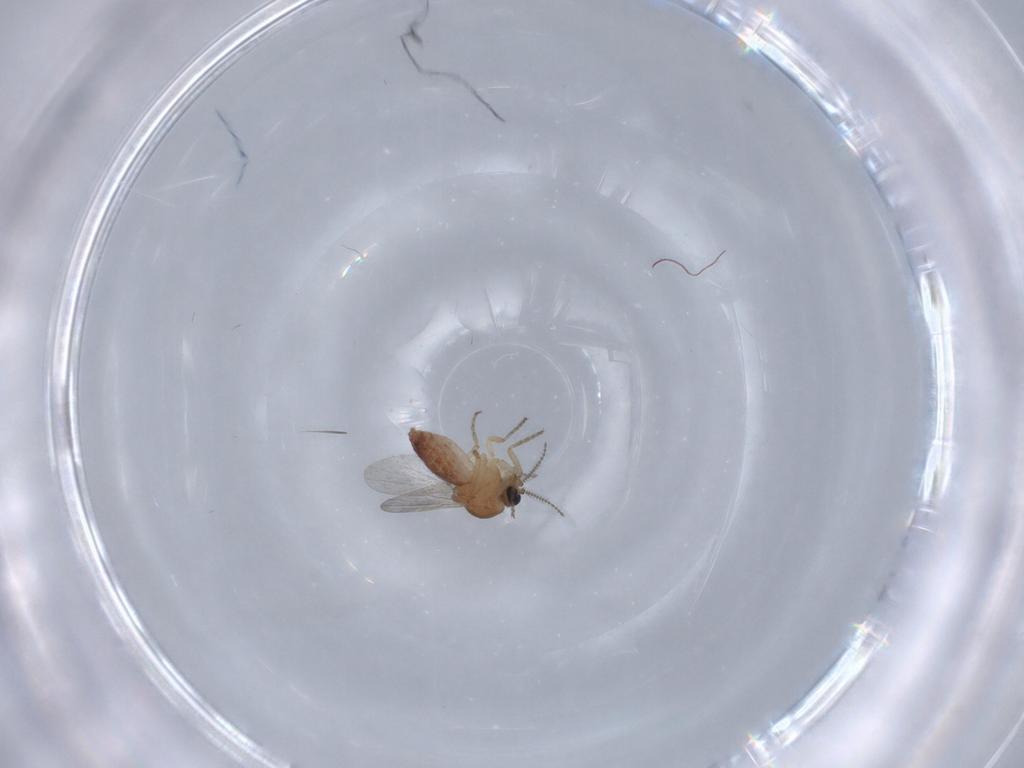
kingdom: Animalia
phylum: Arthropoda
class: Insecta
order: Diptera
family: Ceratopogonidae
